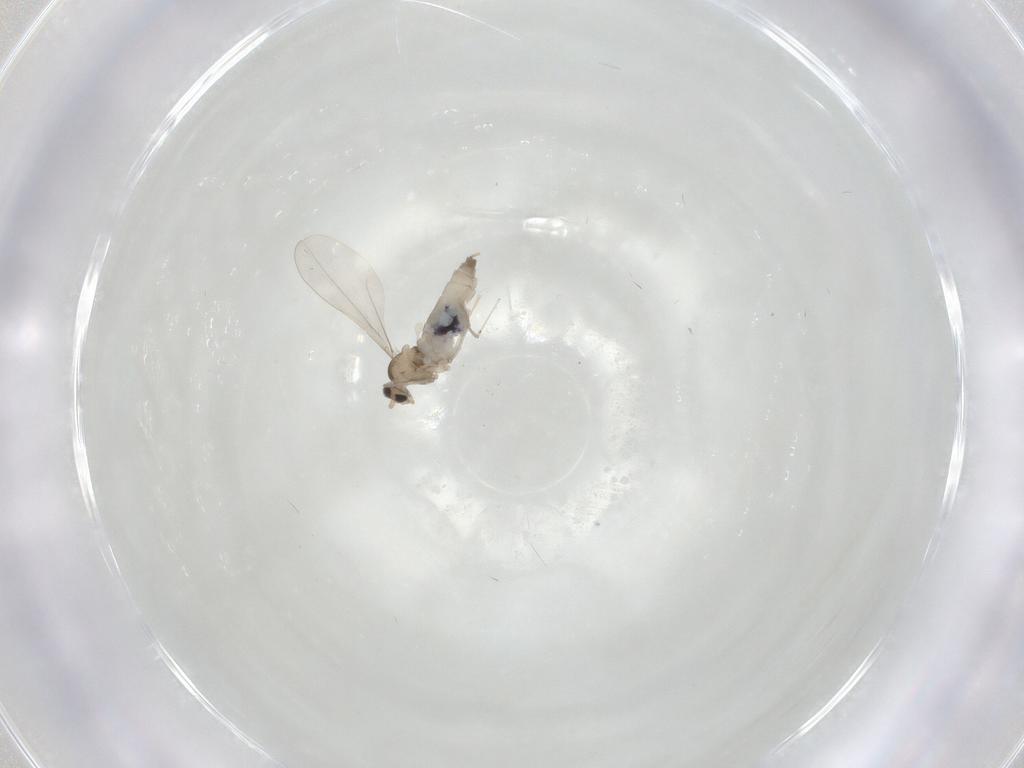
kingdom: Animalia
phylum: Arthropoda
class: Insecta
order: Diptera
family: Cecidomyiidae
